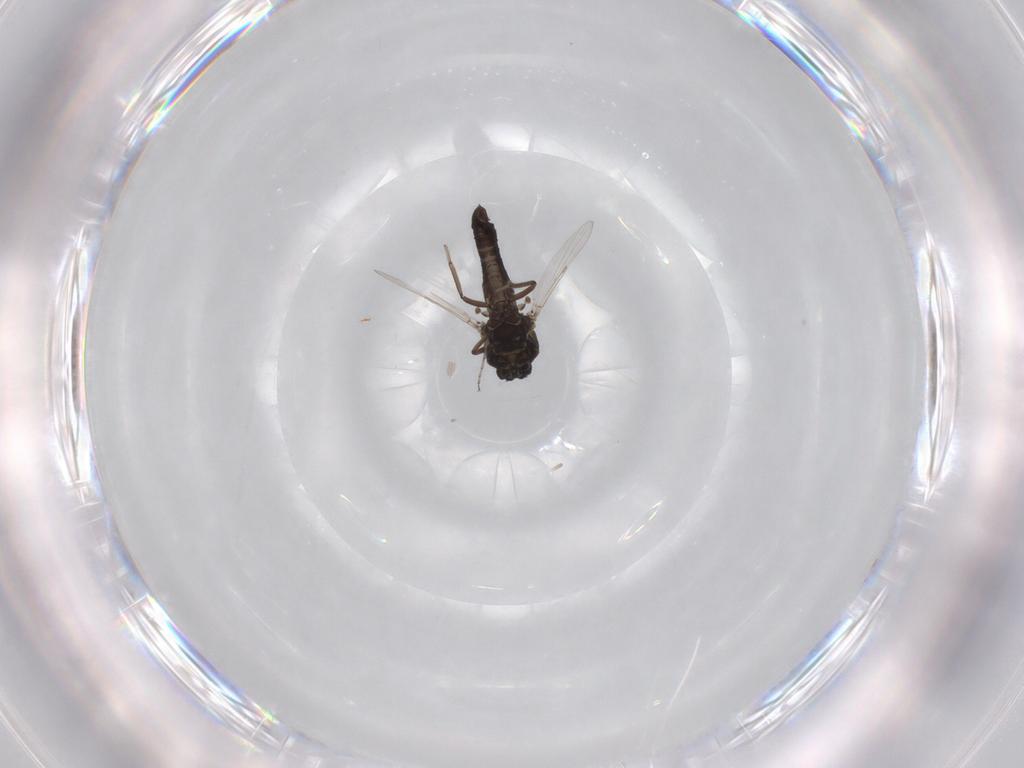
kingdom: Animalia
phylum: Arthropoda
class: Insecta
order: Diptera
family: Ceratopogonidae
